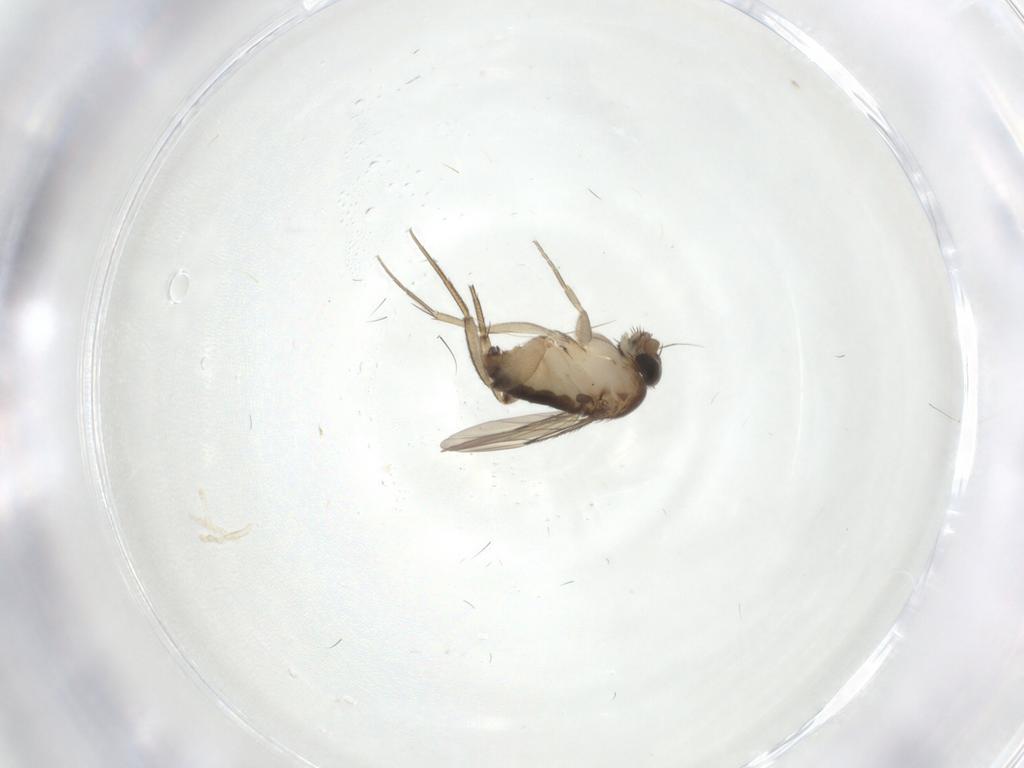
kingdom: Animalia
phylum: Arthropoda
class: Insecta
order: Diptera
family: Phoridae
